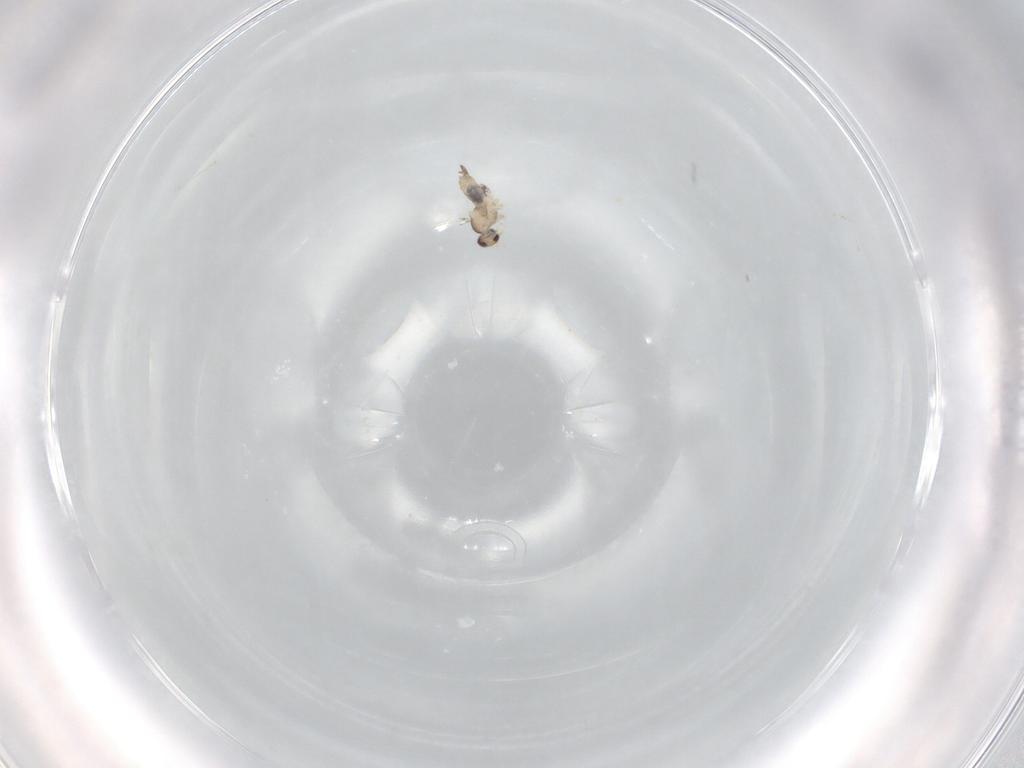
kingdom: Animalia
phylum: Arthropoda
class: Insecta
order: Diptera
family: Cecidomyiidae
